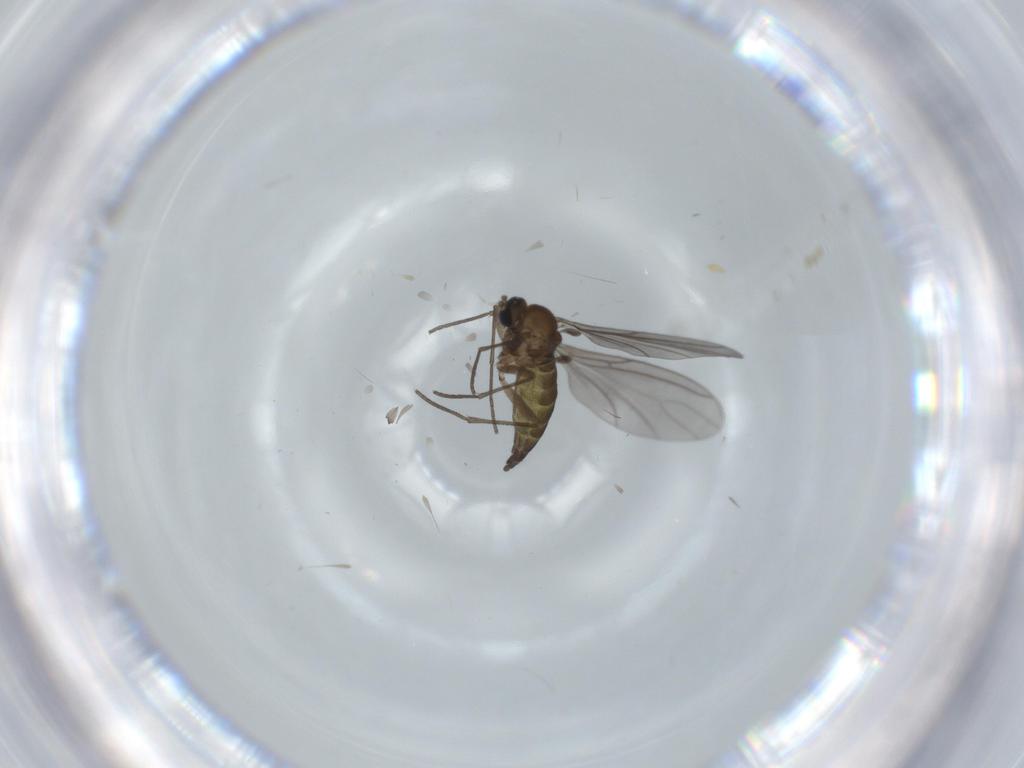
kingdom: Animalia
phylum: Arthropoda
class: Insecta
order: Diptera
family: Sciaridae
